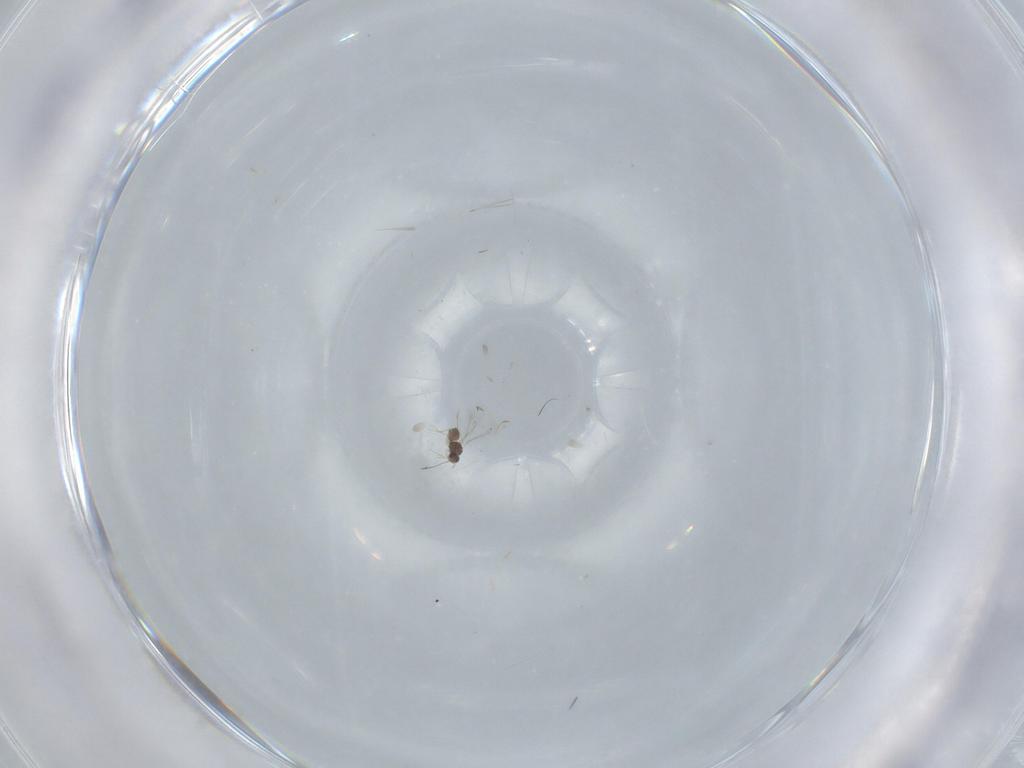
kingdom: Animalia
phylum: Arthropoda
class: Insecta
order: Hymenoptera
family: Mymaridae
